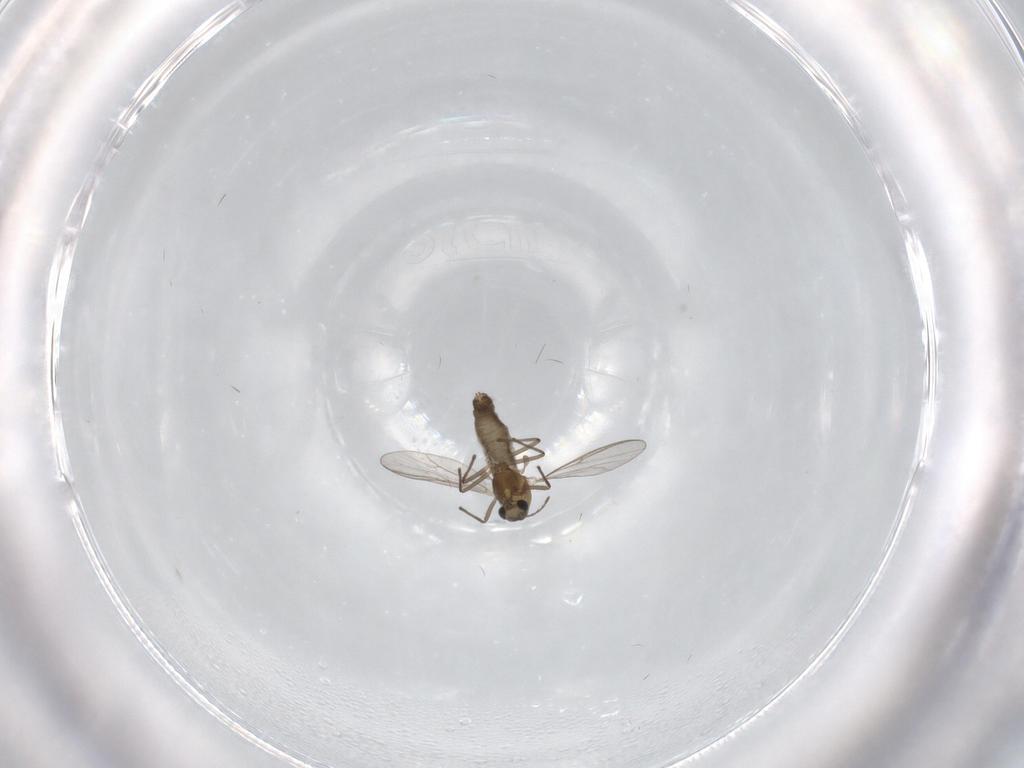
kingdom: Animalia
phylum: Arthropoda
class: Insecta
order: Diptera
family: Chironomidae
